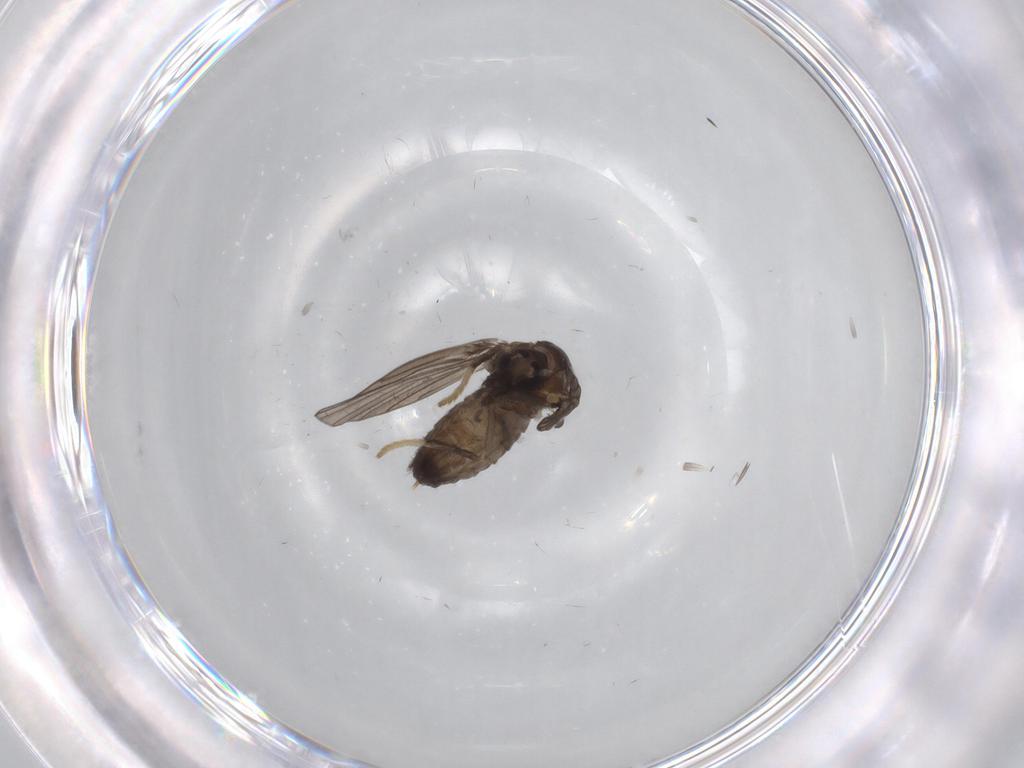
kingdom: Animalia
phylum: Arthropoda
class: Insecta
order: Diptera
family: Psychodidae
